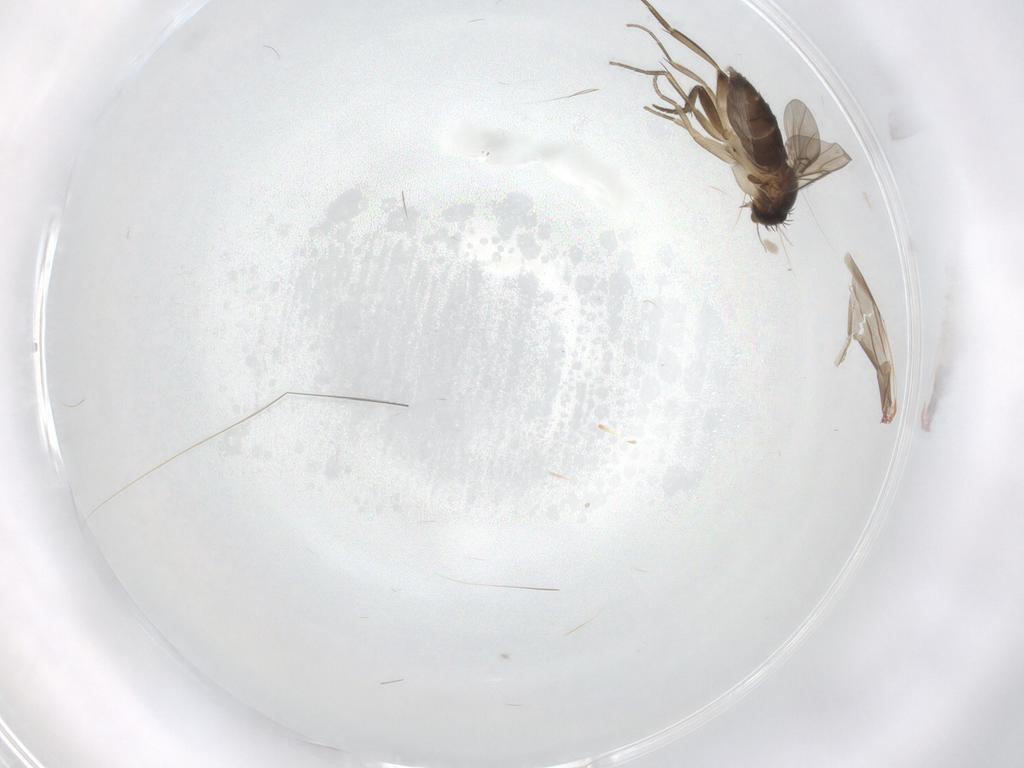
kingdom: Animalia
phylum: Arthropoda
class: Insecta
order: Diptera
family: Phoridae
